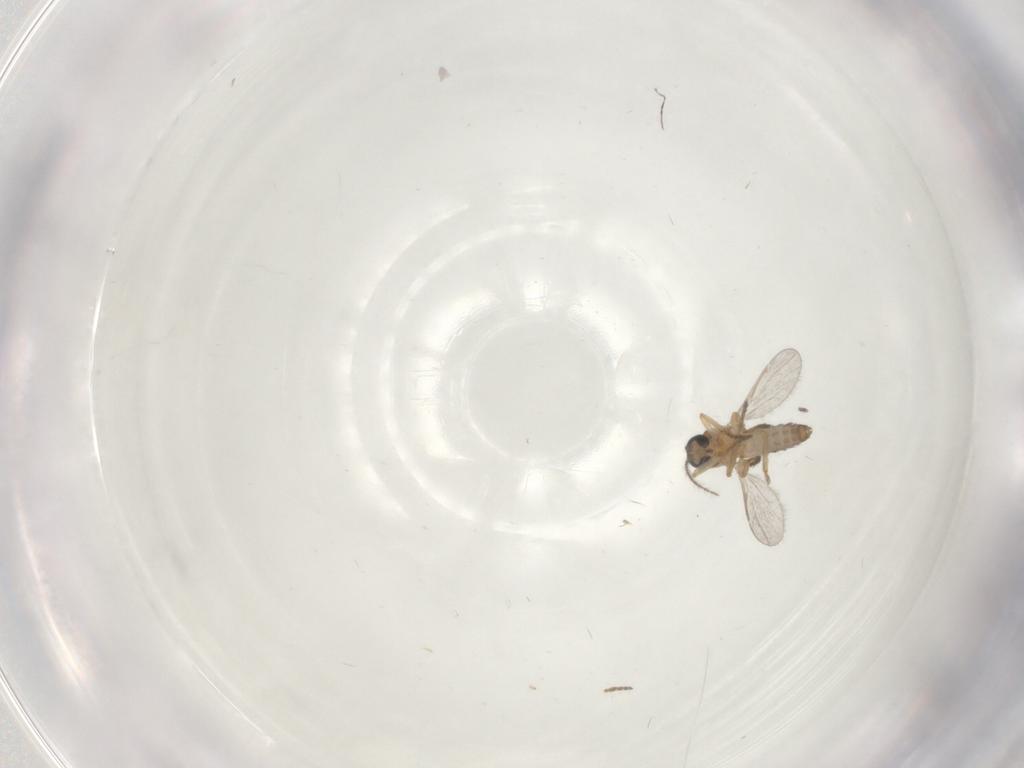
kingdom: Animalia
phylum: Arthropoda
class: Insecta
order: Diptera
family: Ceratopogonidae
